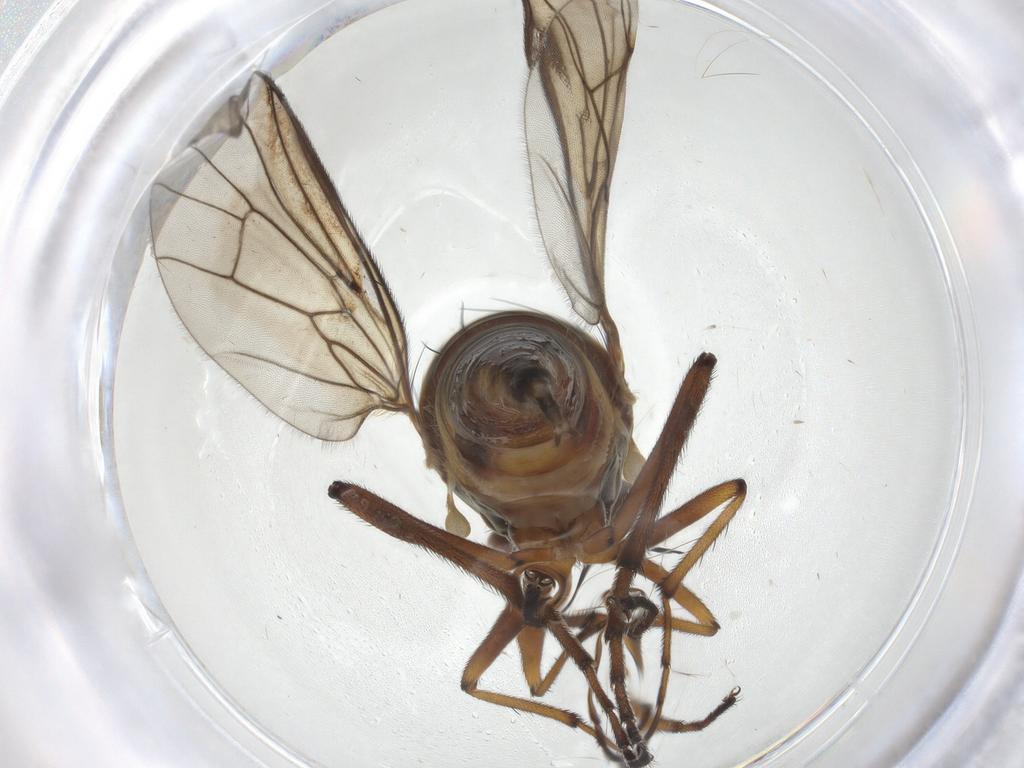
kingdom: Animalia
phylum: Arthropoda
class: Insecta
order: Diptera
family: Empididae
